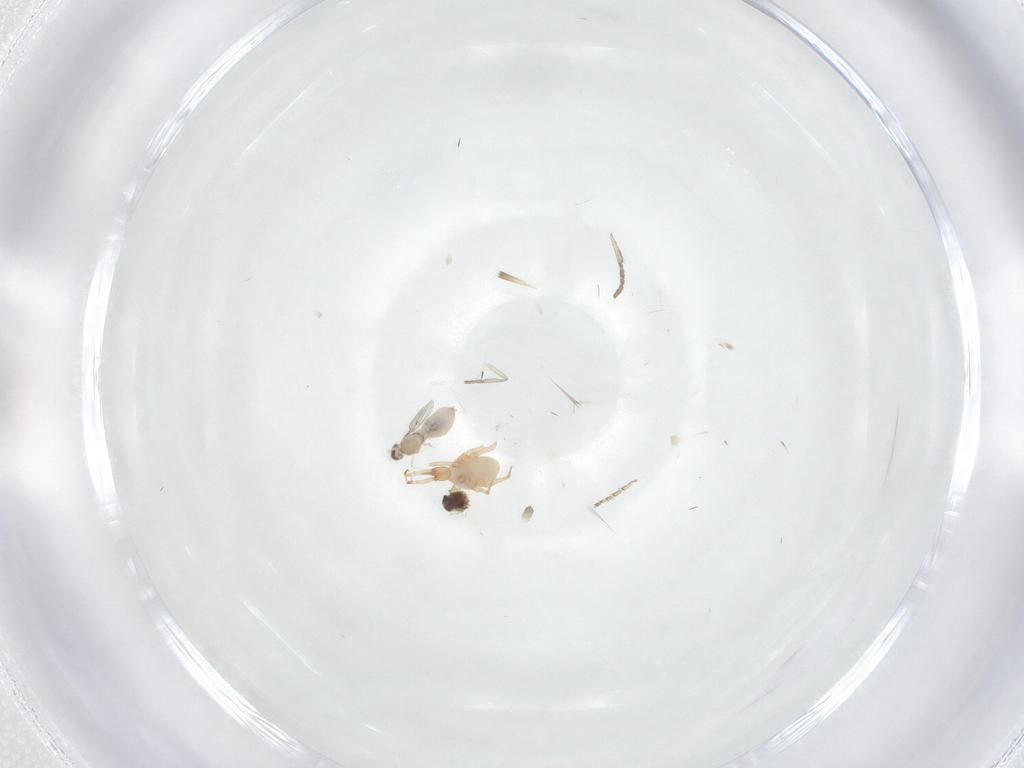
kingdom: Animalia
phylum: Arthropoda
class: Insecta
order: Diptera
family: Cecidomyiidae
